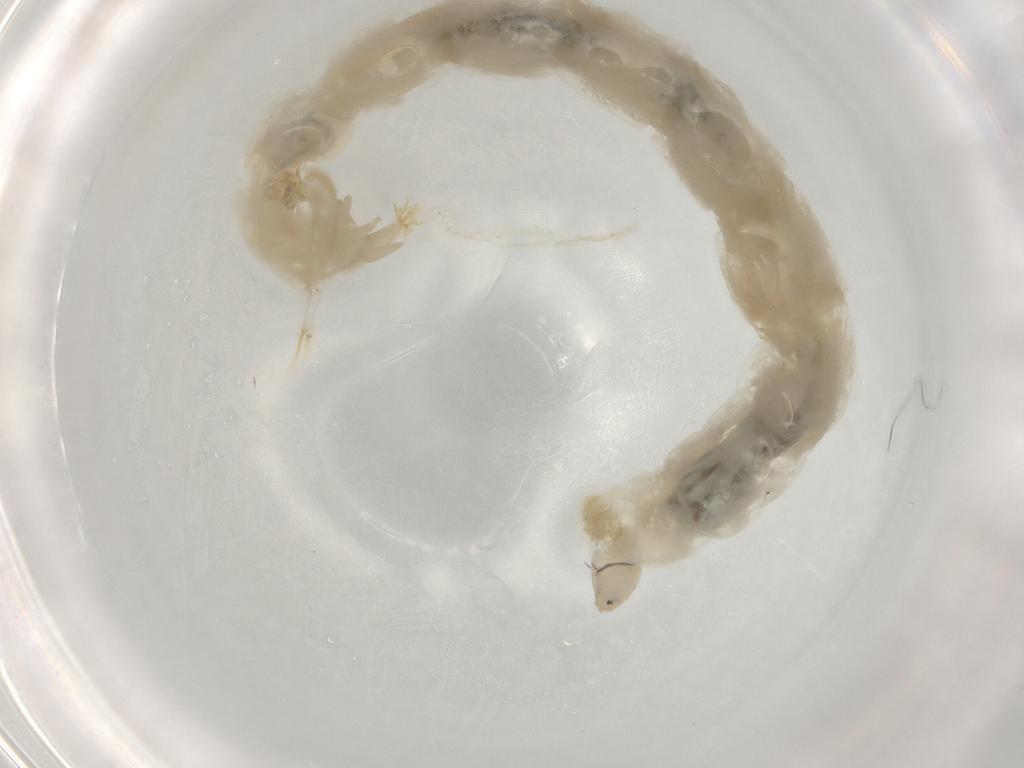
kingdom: Animalia
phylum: Arthropoda
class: Insecta
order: Diptera
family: Chironomidae
